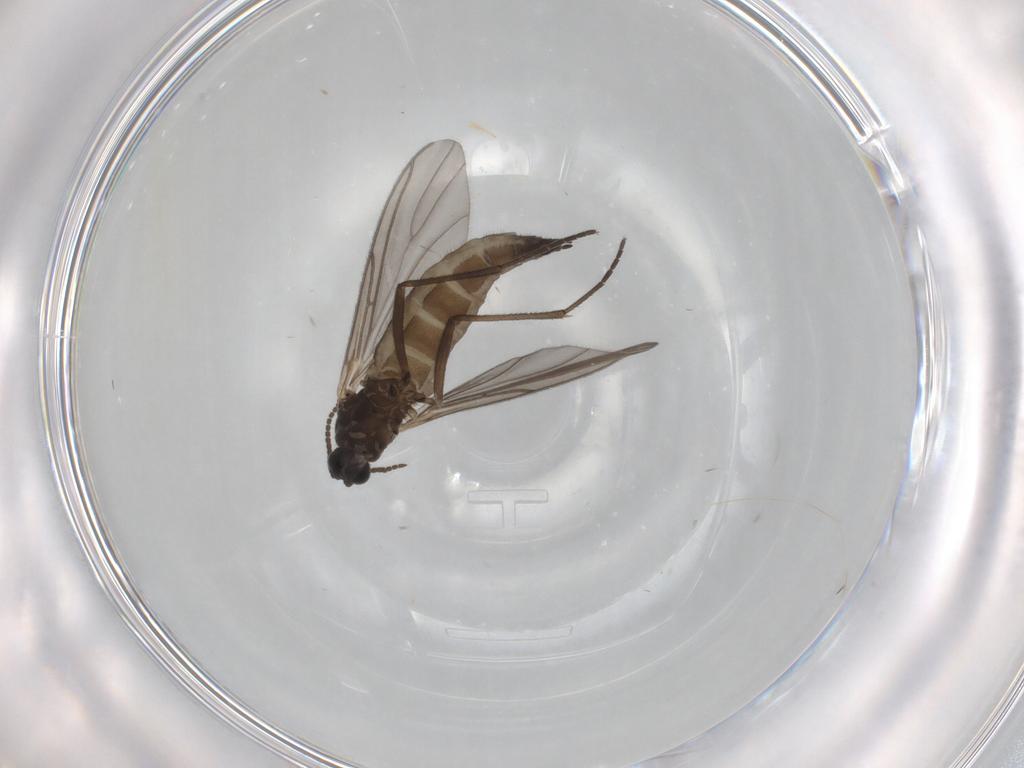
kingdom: Animalia
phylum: Arthropoda
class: Insecta
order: Diptera
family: Sciaridae
